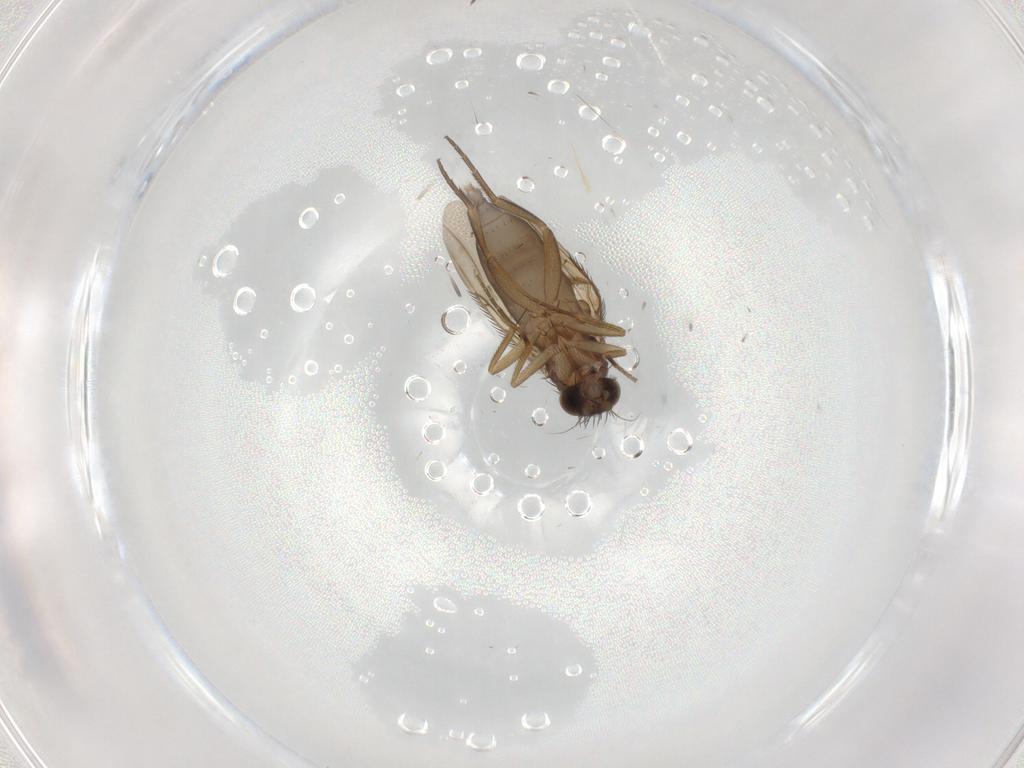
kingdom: Animalia
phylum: Arthropoda
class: Insecta
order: Diptera
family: Phoridae
